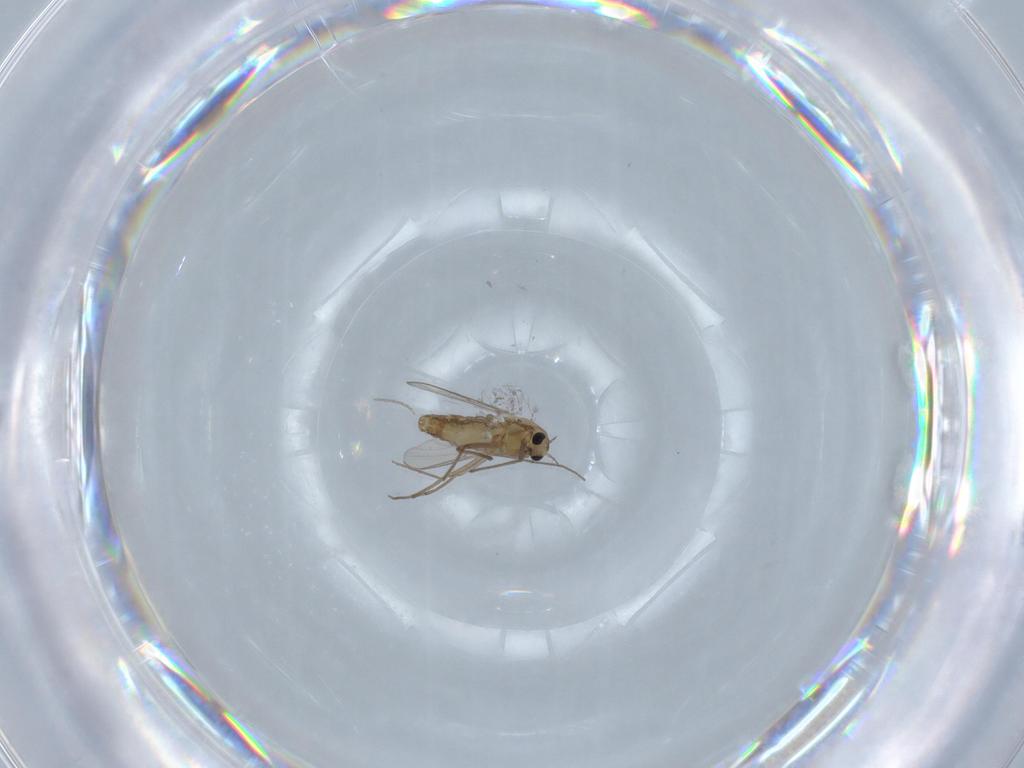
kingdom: Animalia
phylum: Arthropoda
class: Insecta
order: Diptera
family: Chironomidae
